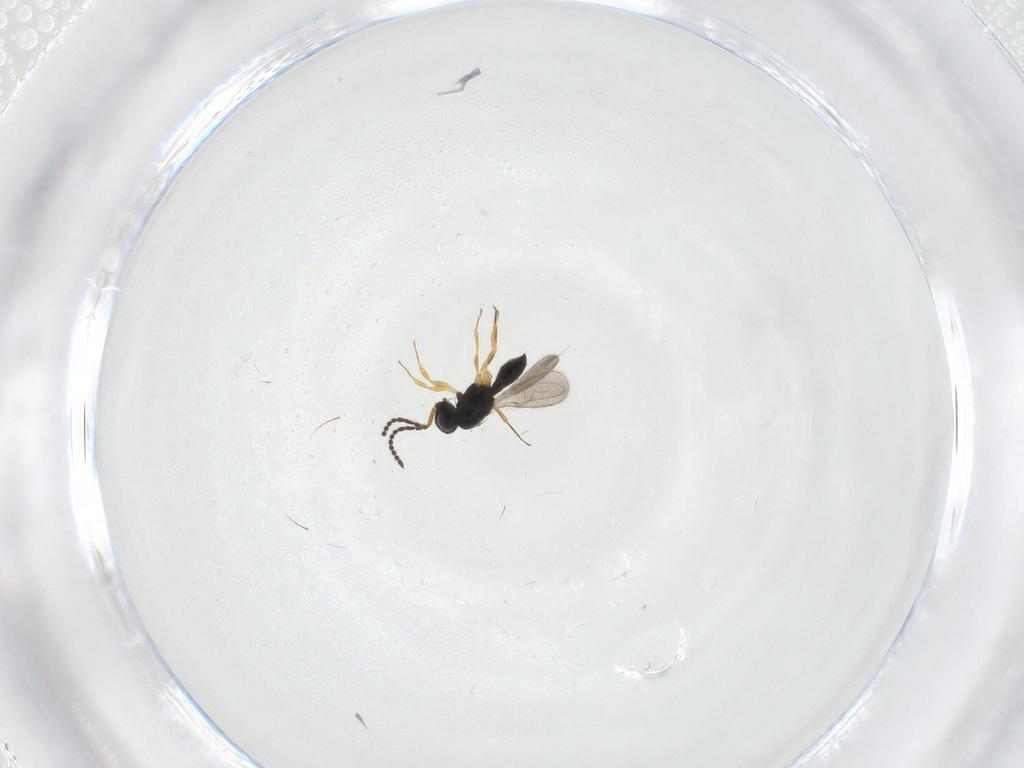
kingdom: Animalia
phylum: Arthropoda
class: Insecta
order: Hymenoptera
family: Scelionidae
